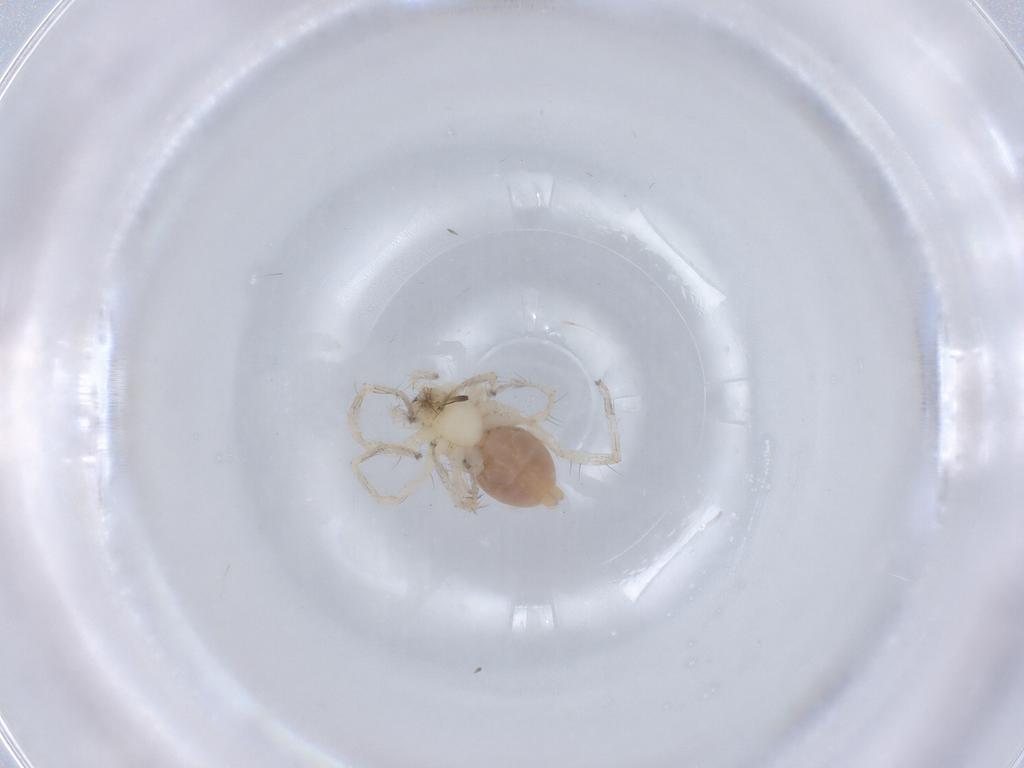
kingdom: Animalia
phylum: Arthropoda
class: Arachnida
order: Araneae
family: Anyphaenidae
